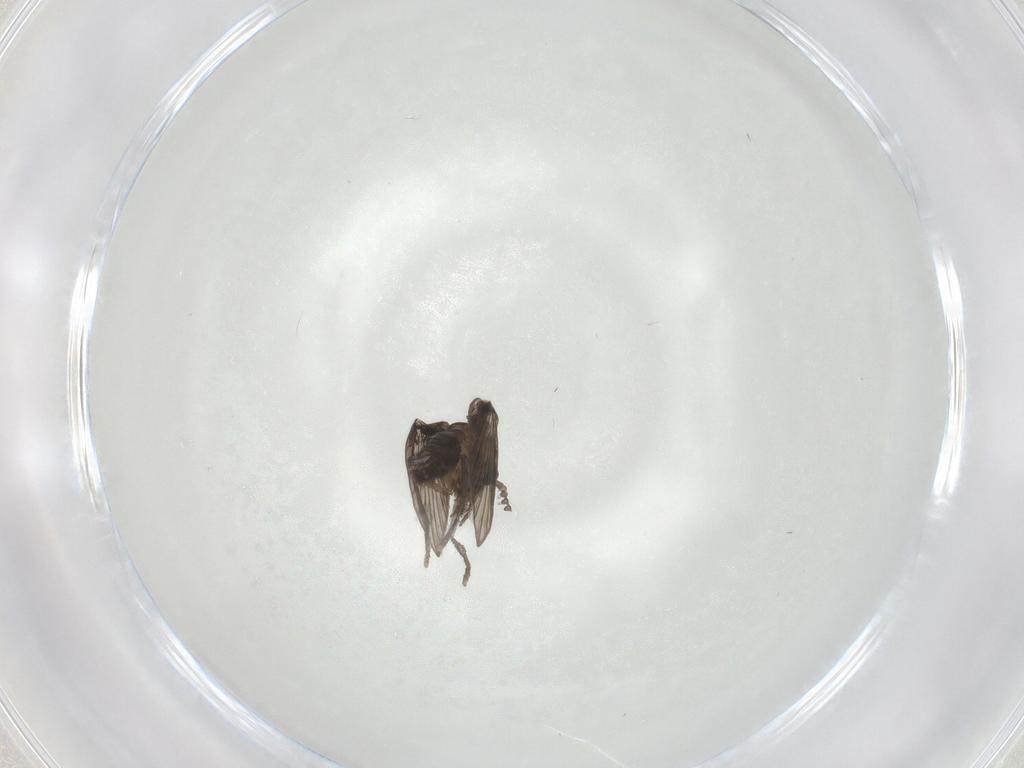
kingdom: Animalia
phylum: Arthropoda
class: Insecta
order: Diptera
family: Psychodidae
